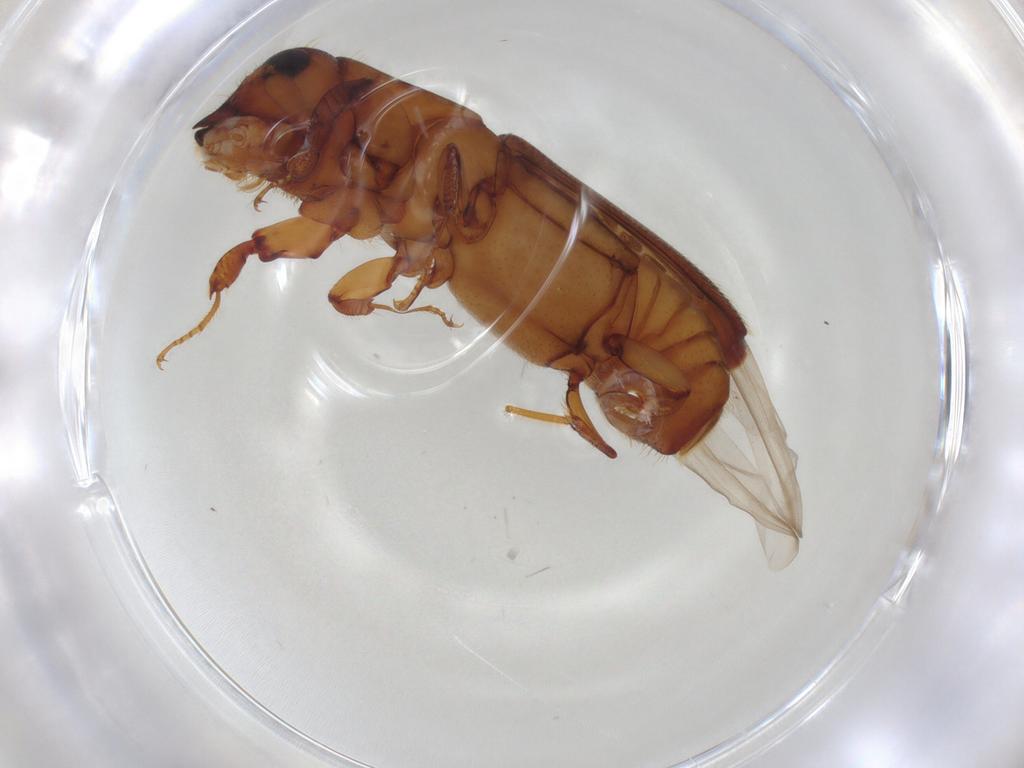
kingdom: Animalia
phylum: Arthropoda
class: Insecta
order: Coleoptera
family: Curculionidae
